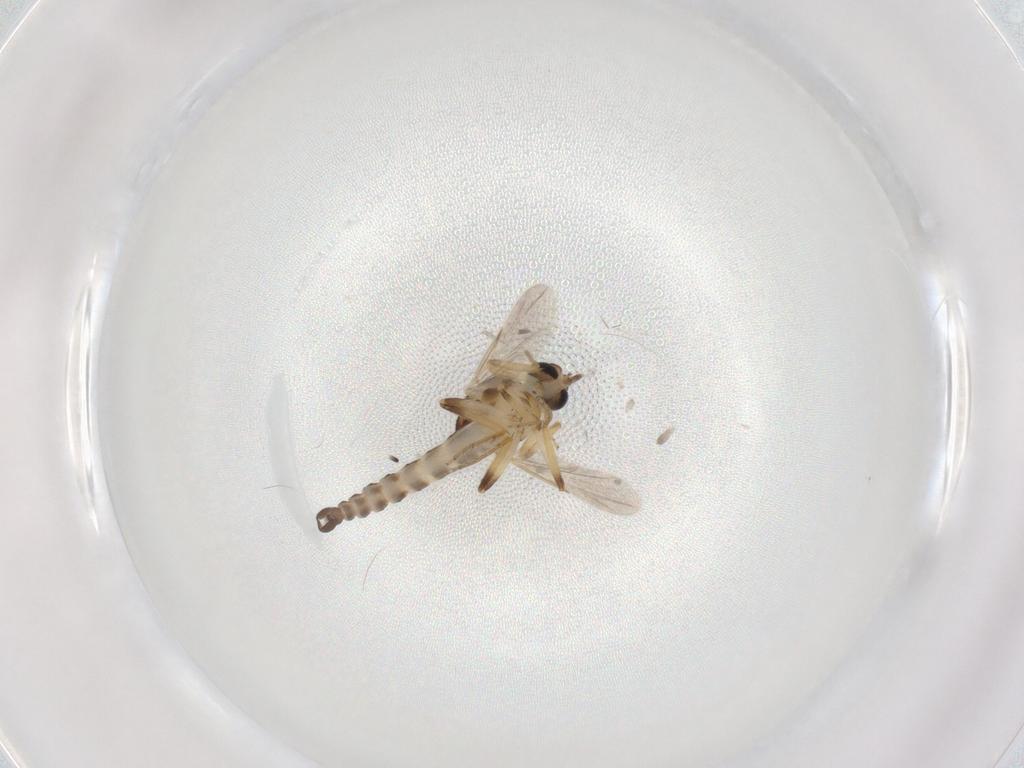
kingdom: Animalia
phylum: Arthropoda
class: Insecta
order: Diptera
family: Ceratopogonidae
